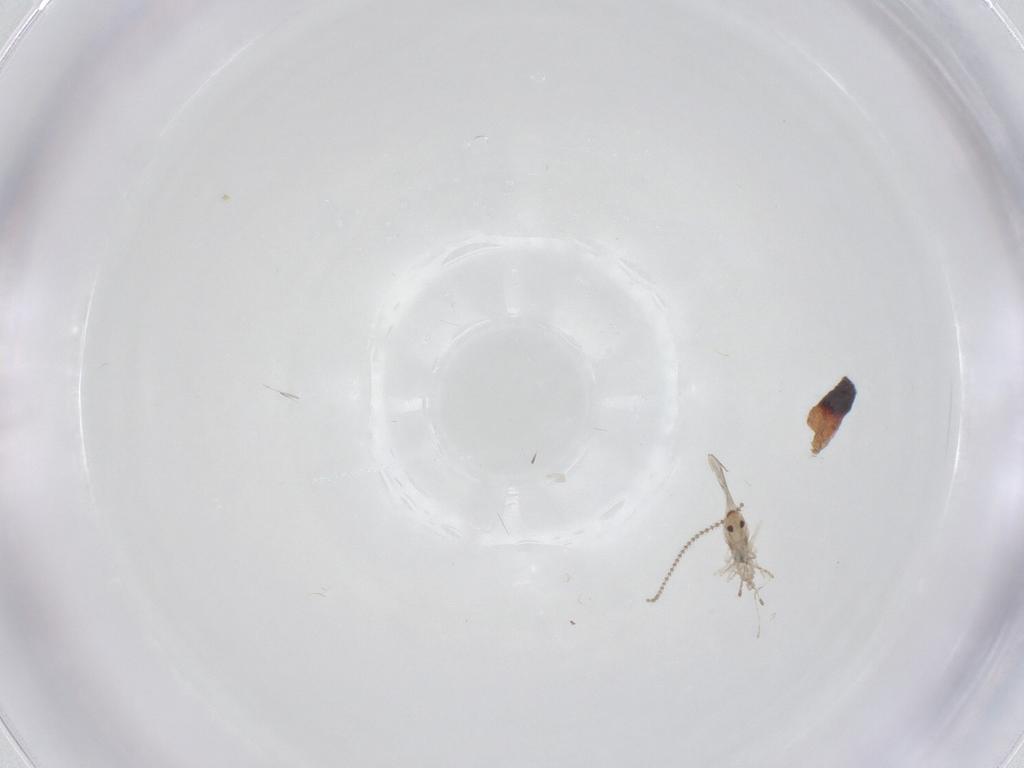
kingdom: Animalia
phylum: Arthropoda
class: Insecta
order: Diptera
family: Cecidomyiidae
